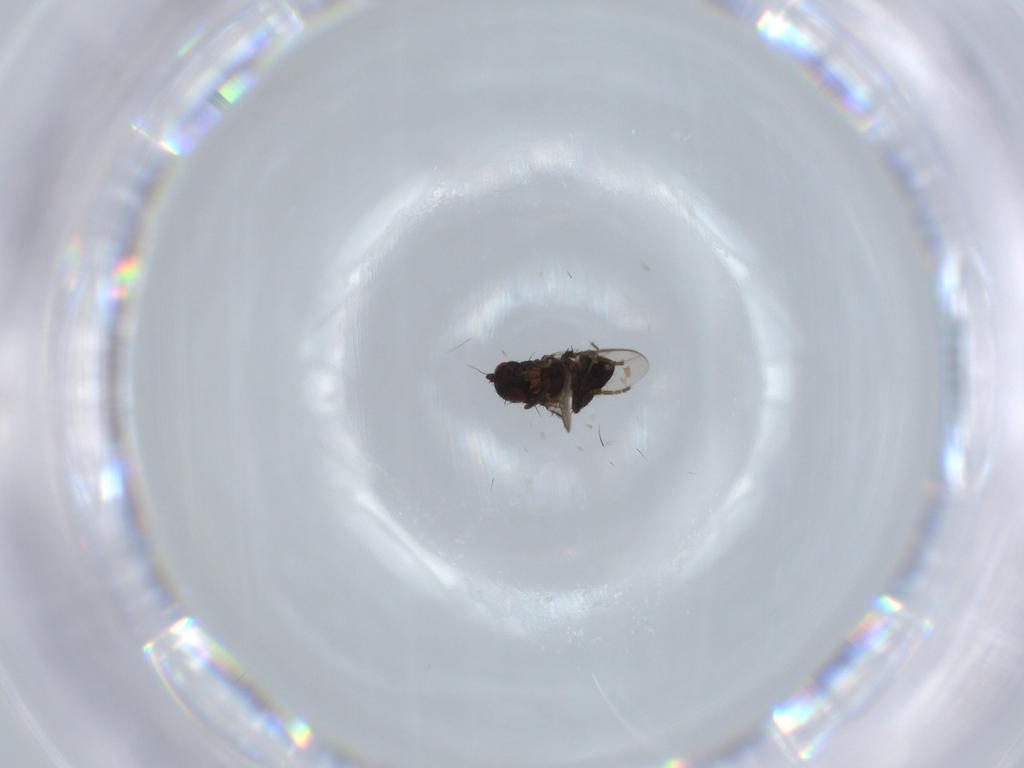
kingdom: Animalia
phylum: Arthropoda
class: Insecta
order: Diptera
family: Sphaeroceridae
